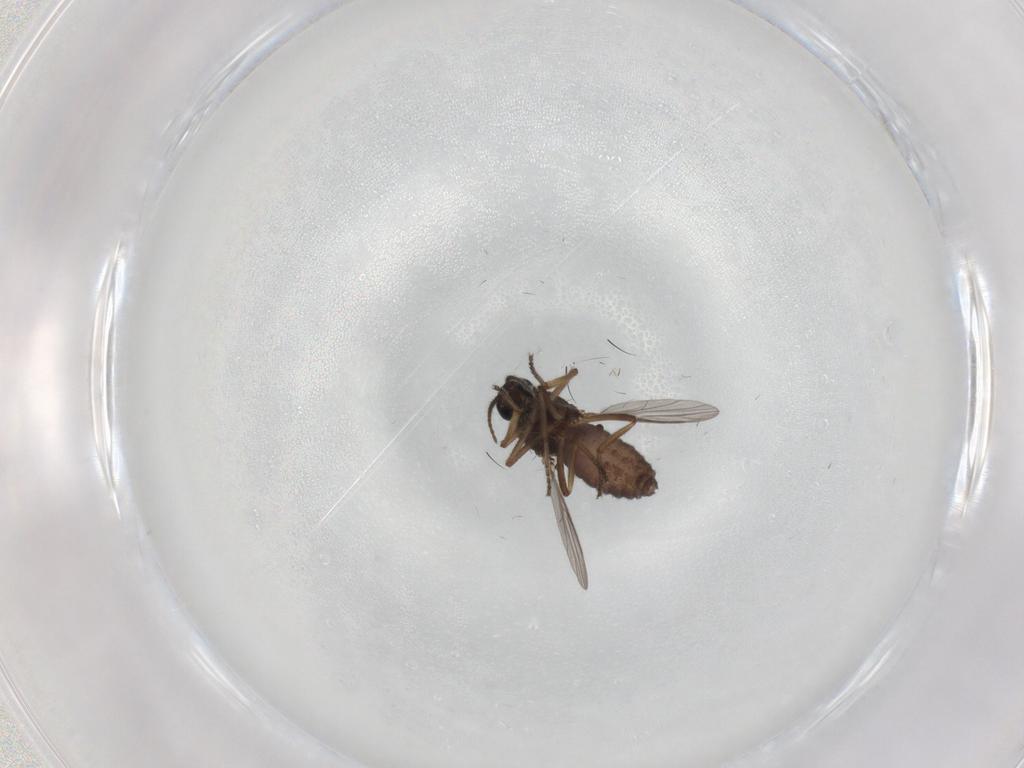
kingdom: Animalia
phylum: Arthropoda
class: Insecta
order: Diptera
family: Ceratopogonidae
